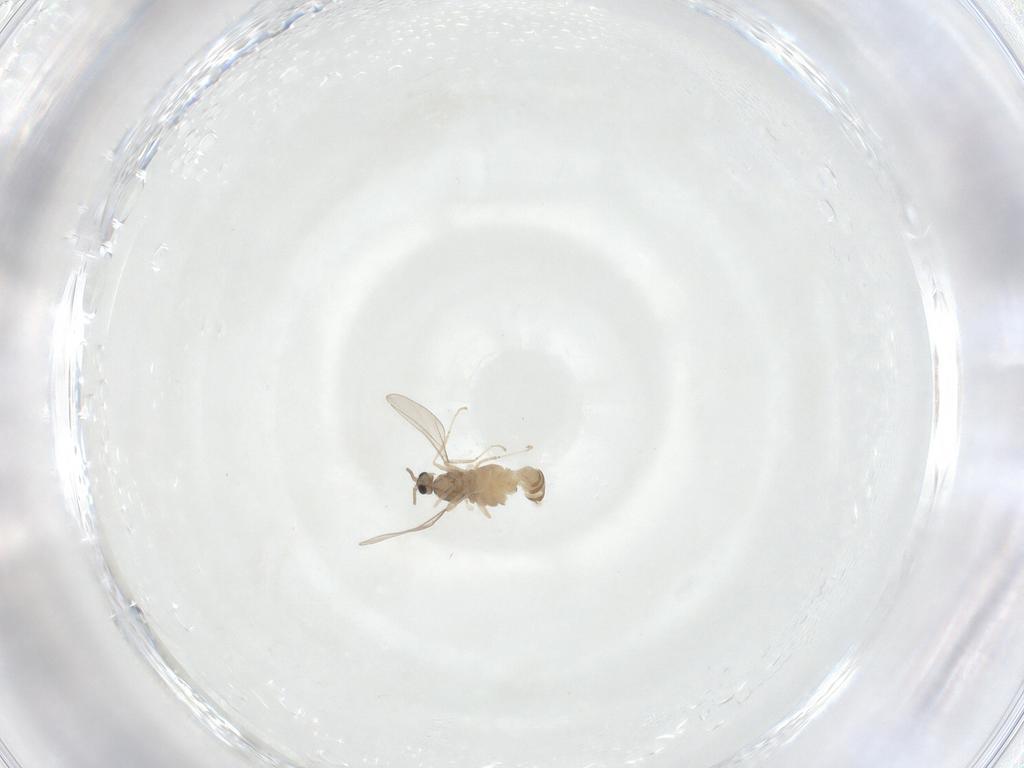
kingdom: Animalia
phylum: Arthropoda
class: Insecta
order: Diptera
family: Cecidomyiidae
